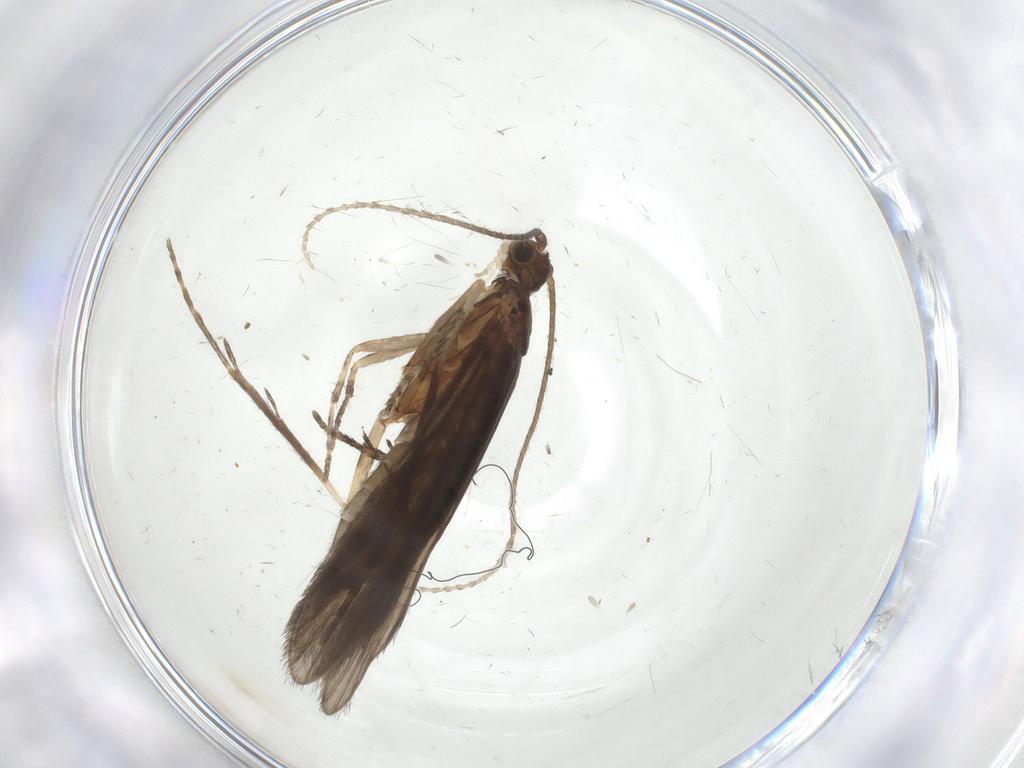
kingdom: Animalia
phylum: Arthropoda
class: Insecta
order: Trichoptera
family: Xiphocentronidae
